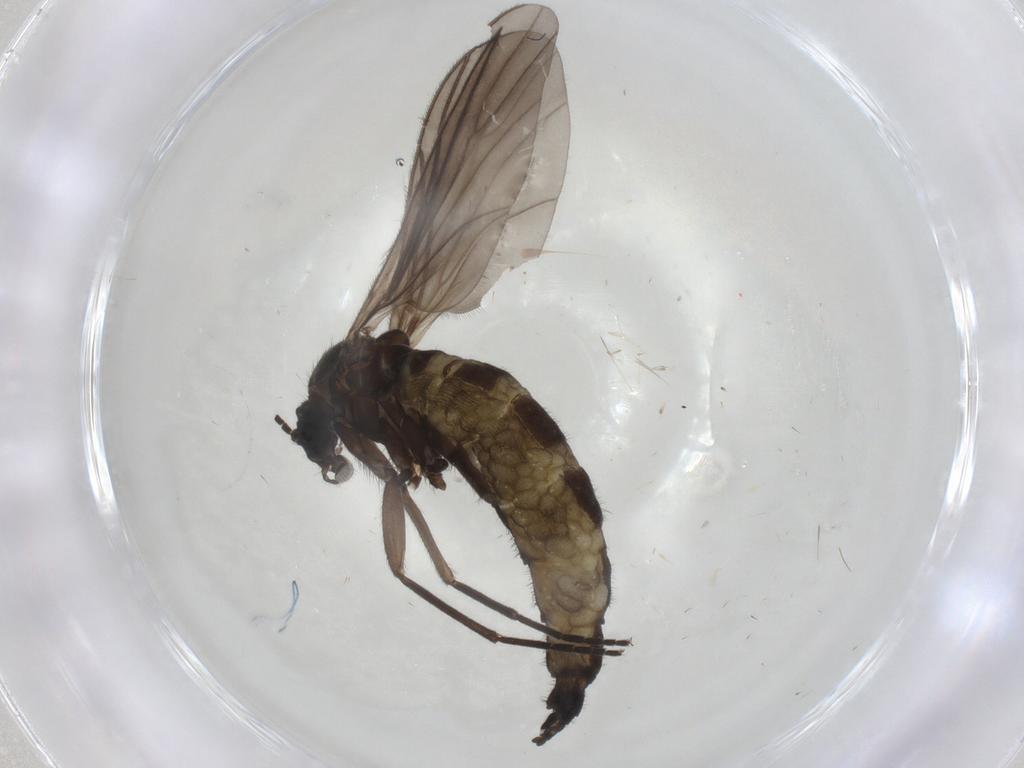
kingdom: Animalia
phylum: Arthropoda
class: Insecta
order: Diptera
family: Sciaridae
